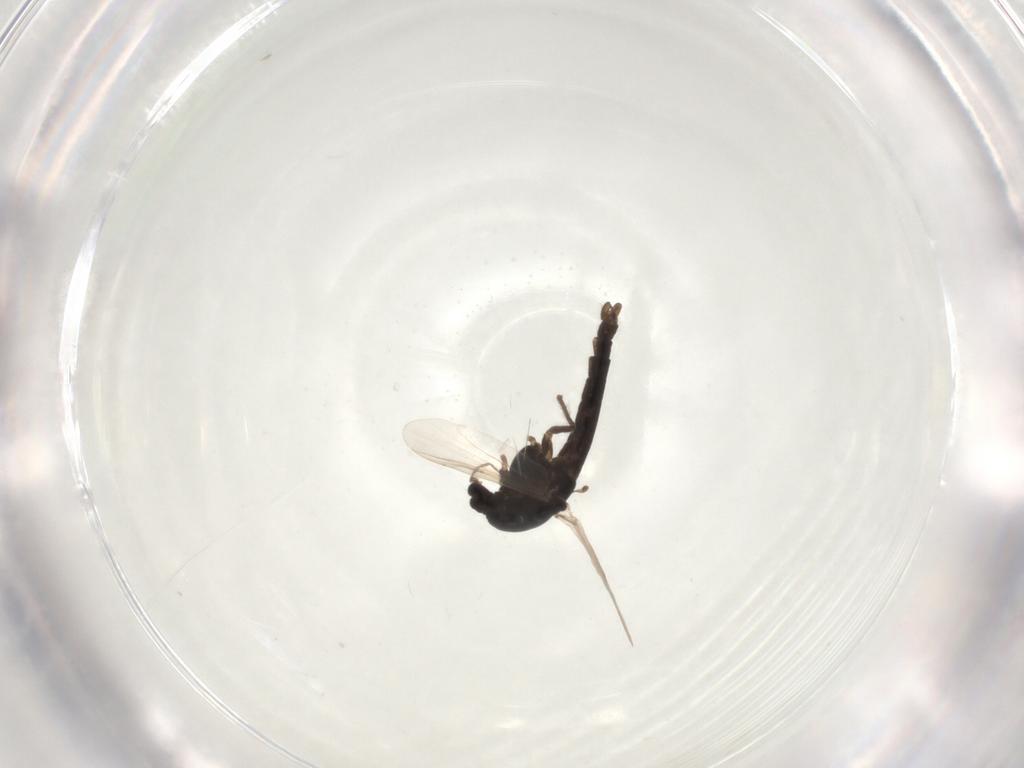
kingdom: Animalia
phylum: Arthropoda
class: Insecta
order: Diptera
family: Chironomidae
